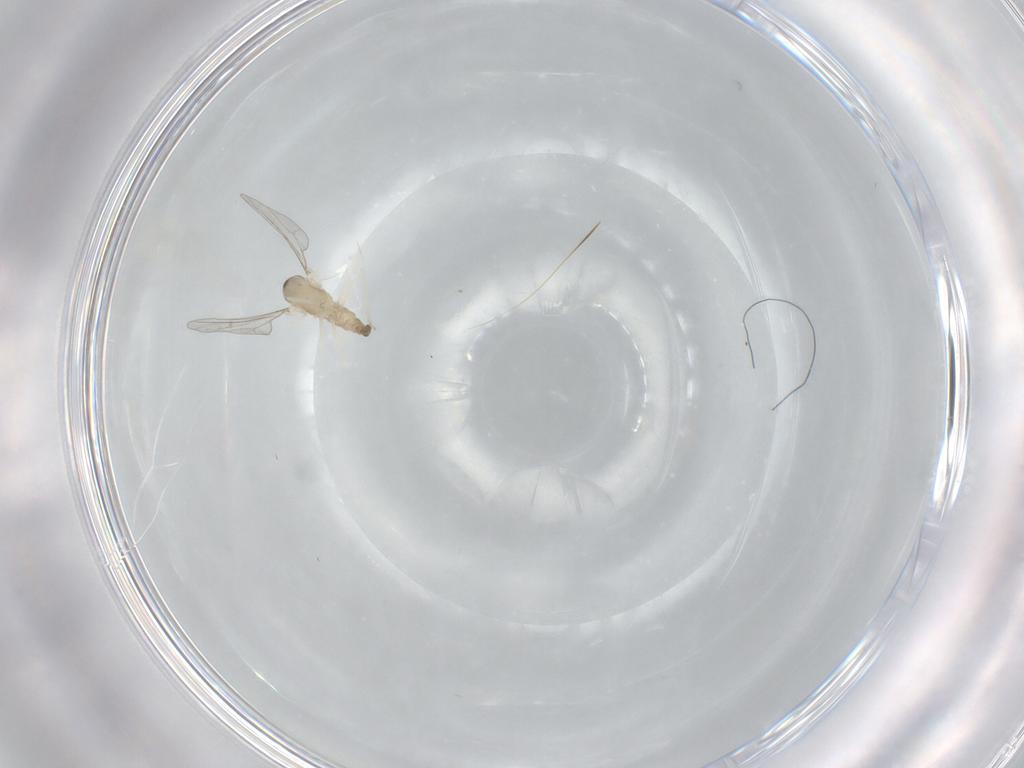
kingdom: Animalia
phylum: Arthropoda
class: Insecta
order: Diptera
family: Cecidomyiidae
